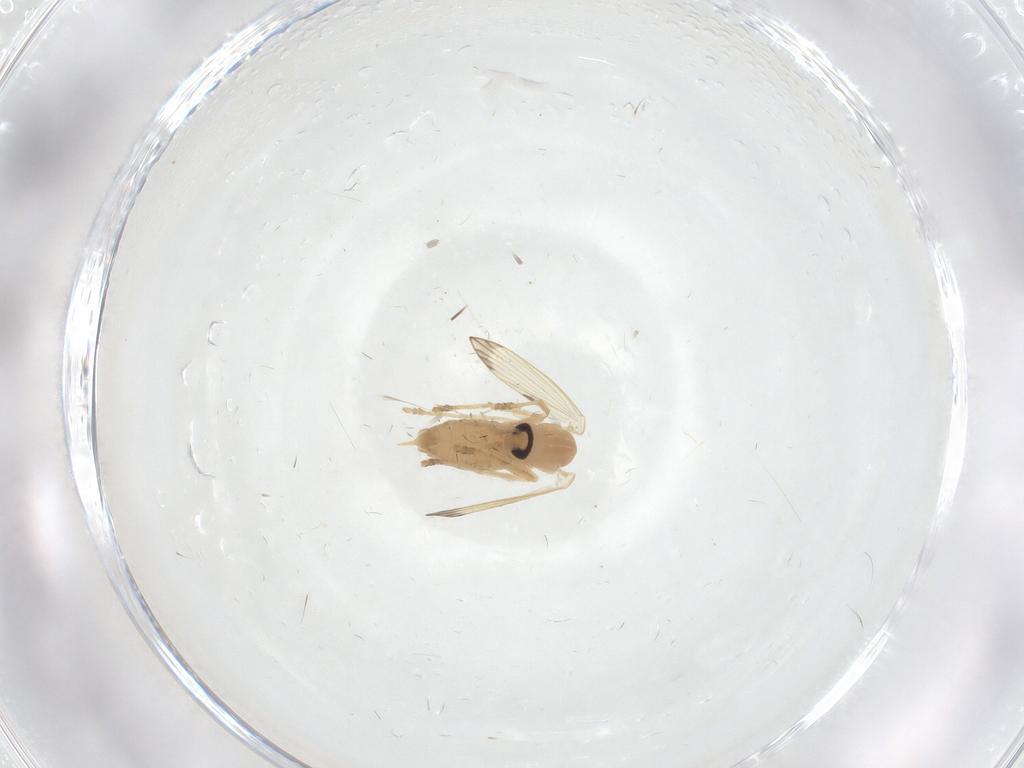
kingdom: Animalia
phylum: Arthropoda
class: Insecta
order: Diptera
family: Psychodidae
